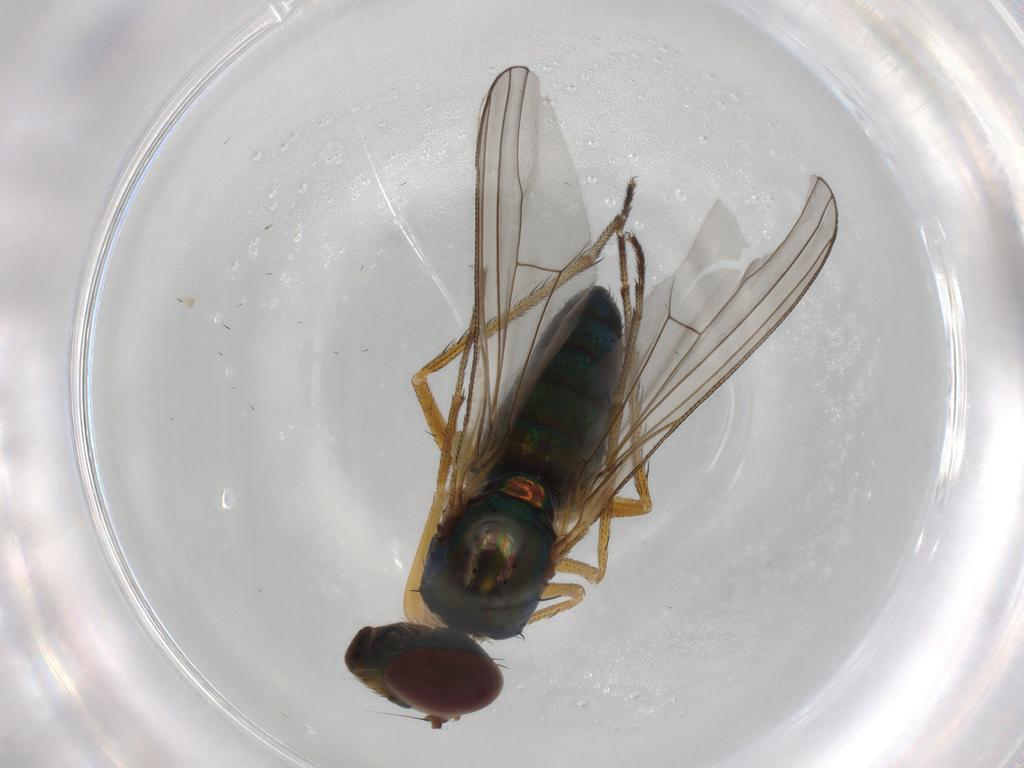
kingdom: Animalia
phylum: Arthropoda
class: Insecta
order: Diptera
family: Dolichopodidae
